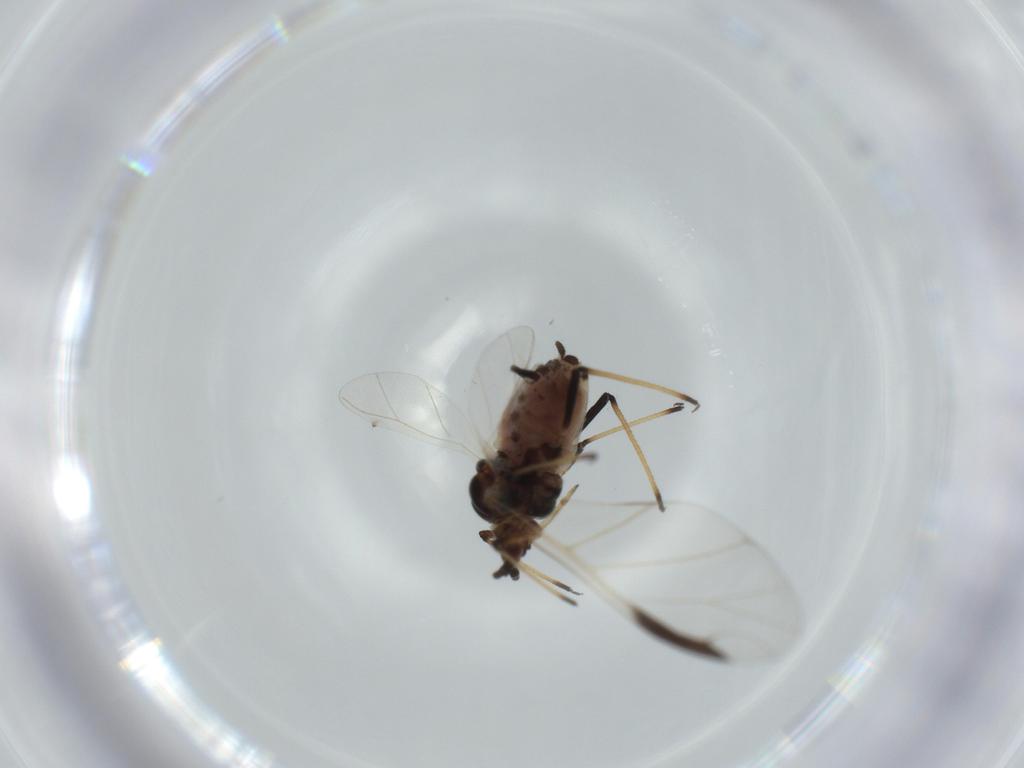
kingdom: Animalia
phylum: Arthropoda
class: Insecta
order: Hemiptera
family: Aphididae
